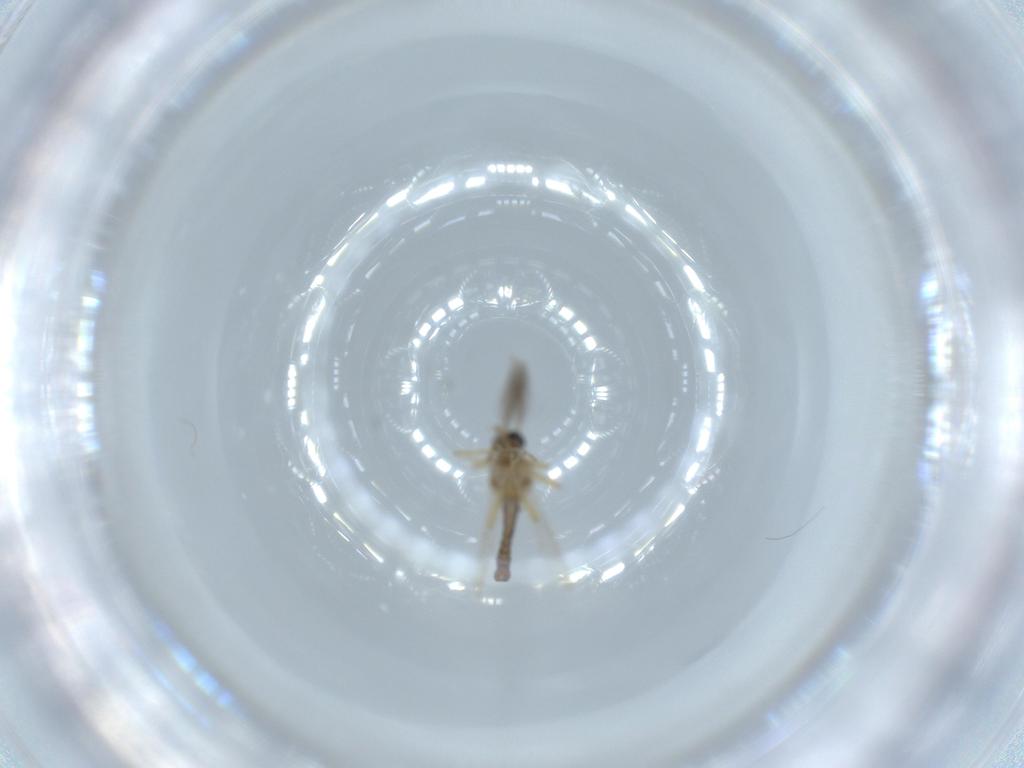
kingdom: Animalia
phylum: Arthropoda
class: Insecta
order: Diptera
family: Ceratopogonidae
